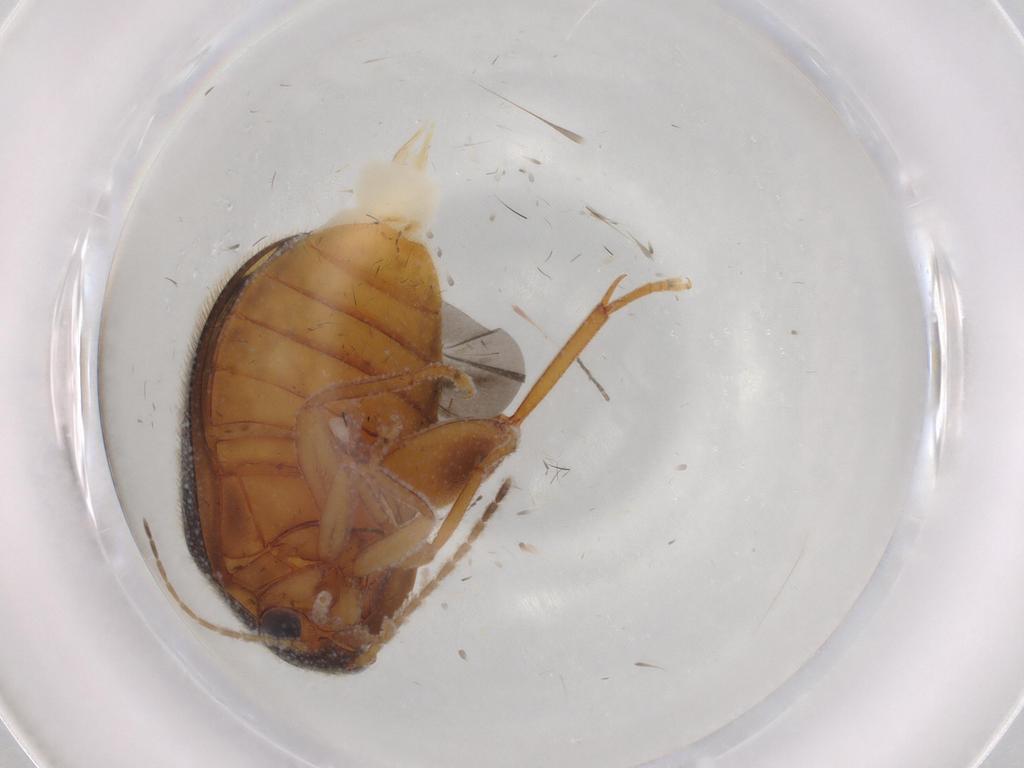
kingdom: Animalia
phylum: Arthropoda
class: Insecta
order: Coleoptera
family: Scirtidae
